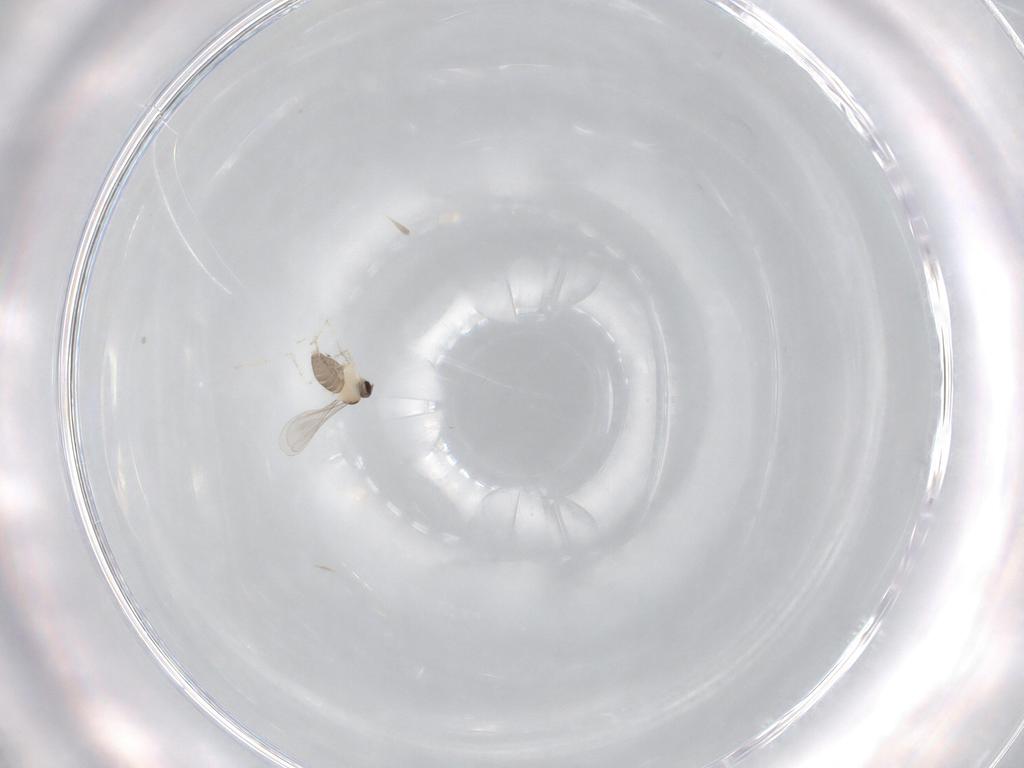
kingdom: Animalia
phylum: Arthropoda
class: Insecta
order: Diptera
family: Cecidomyiidae
